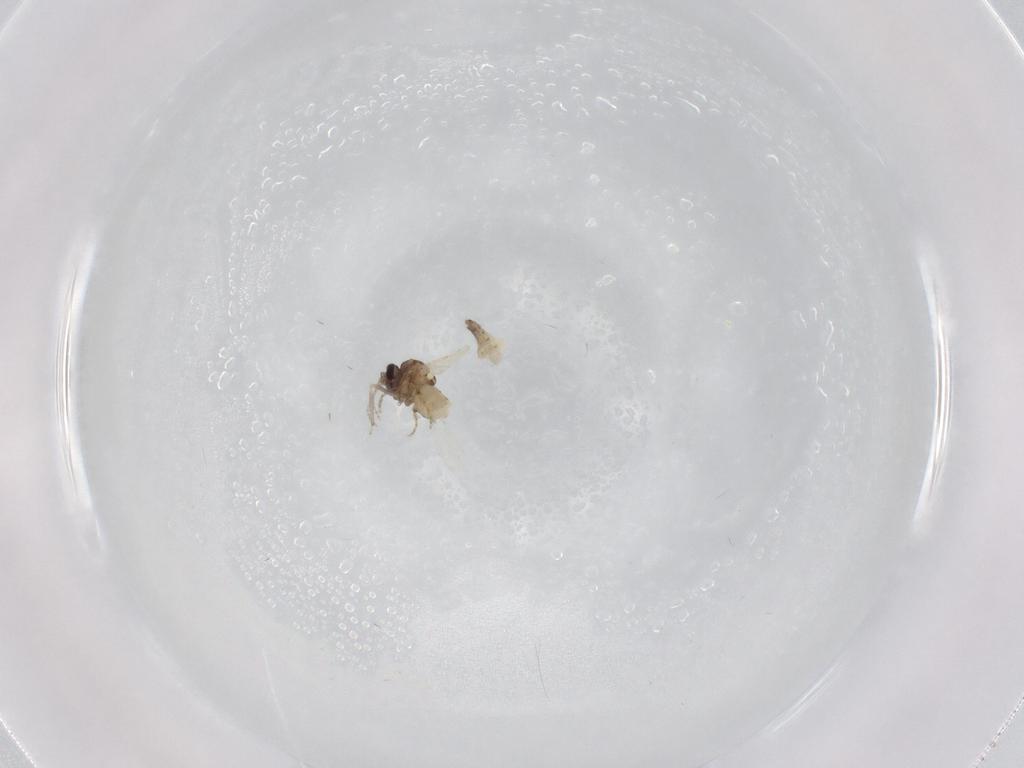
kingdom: Animalia
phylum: Arthropoda
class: Insecta
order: Diptera
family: Ceratopogonidae
